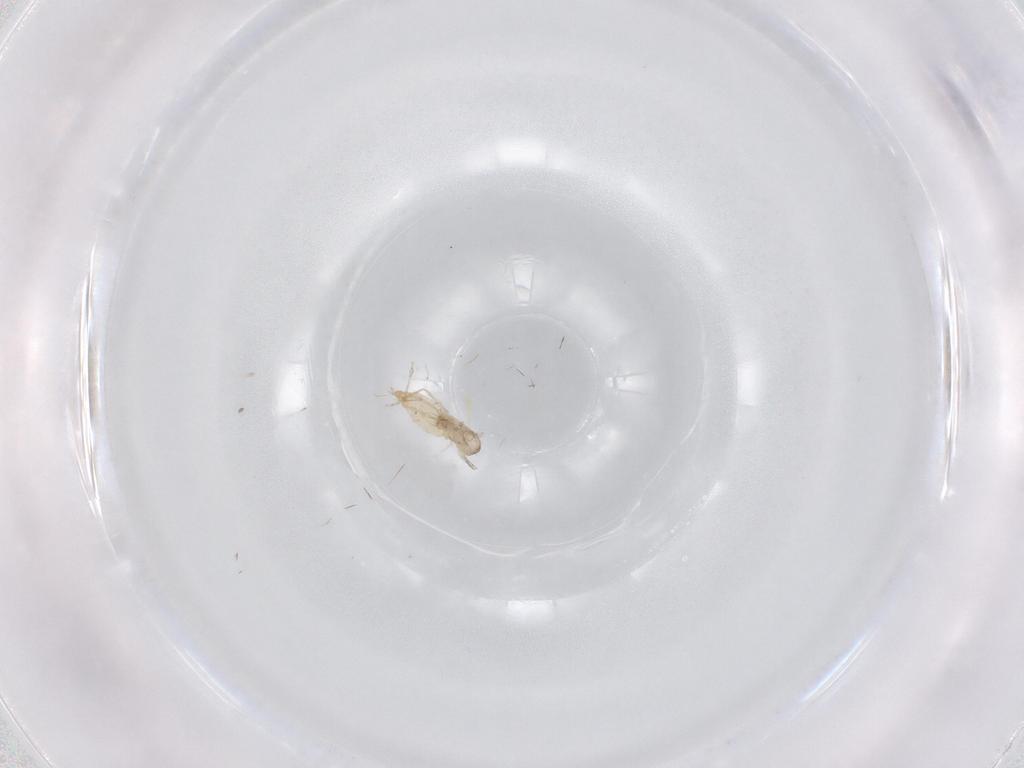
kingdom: Animalia
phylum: Arthropoda
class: Insecta
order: Diptera
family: Cecidomyiidae
